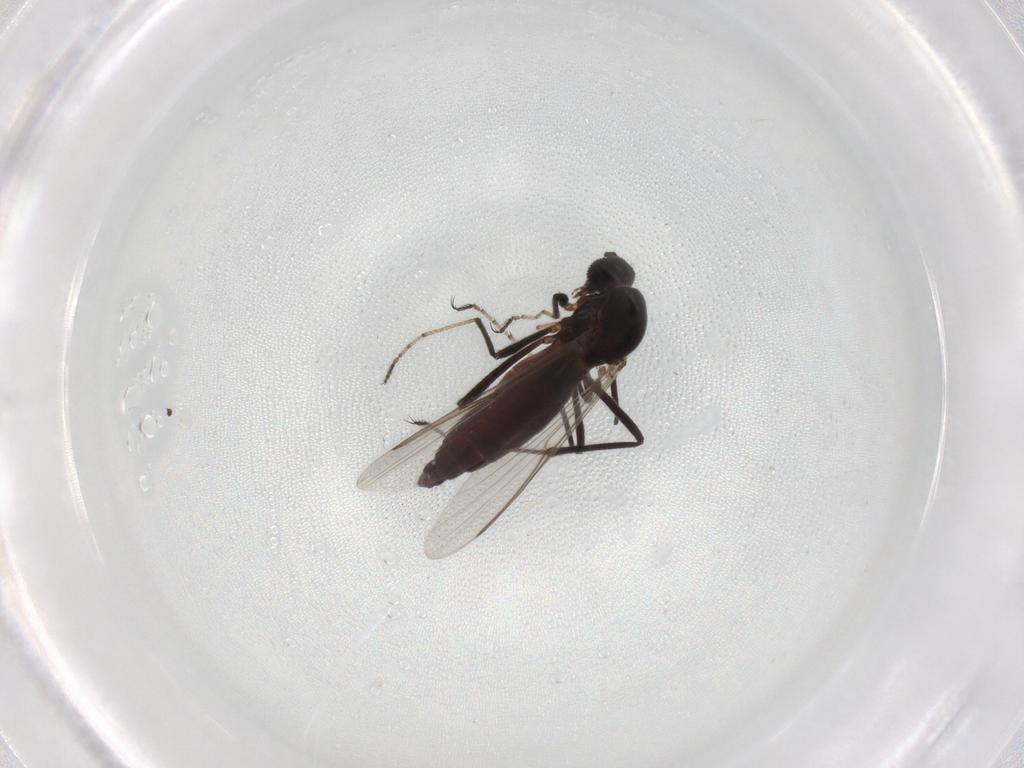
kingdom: Animalia
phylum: Arthropoda
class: Insecta
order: Diptera
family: Ceratopogonidae
